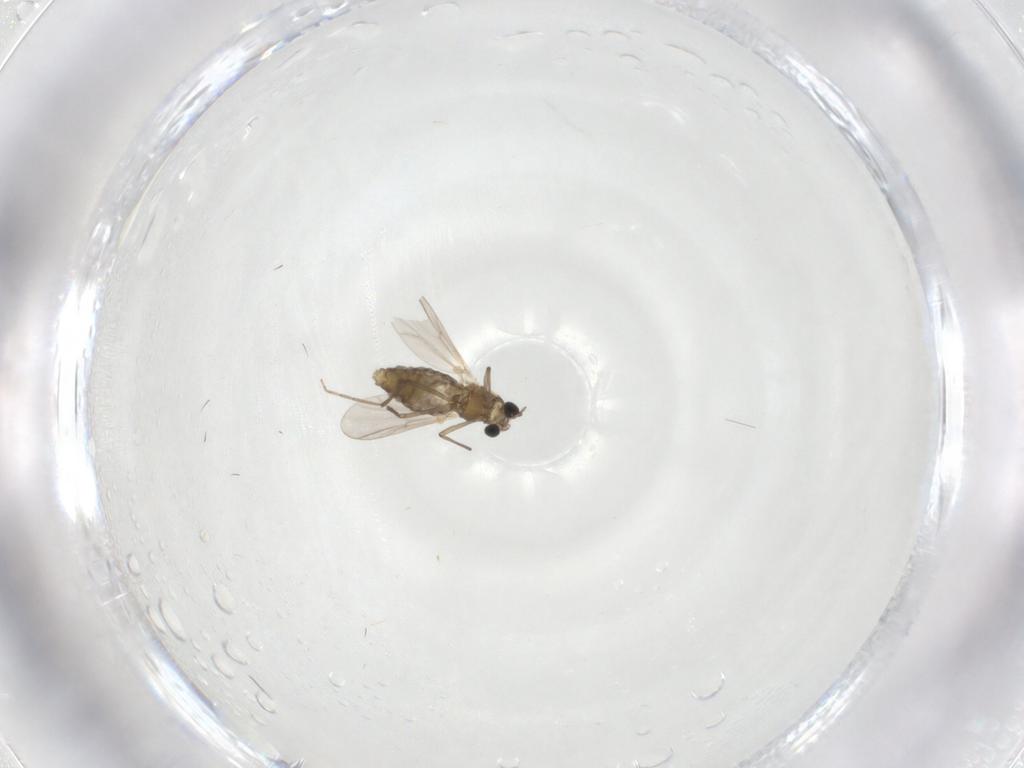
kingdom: Animalia
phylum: Arthropoda
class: Insecta
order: Diptera
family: Chironomidae
